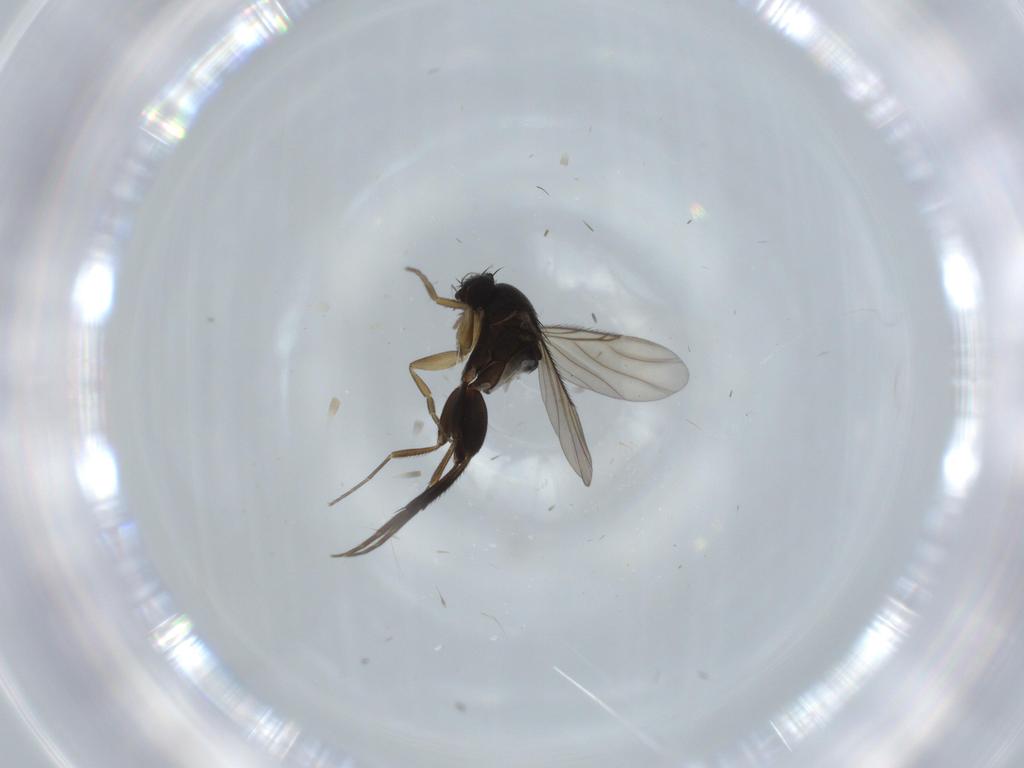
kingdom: Animalia
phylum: Arthropoda
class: Insecta
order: Diptera
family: Phoridae
